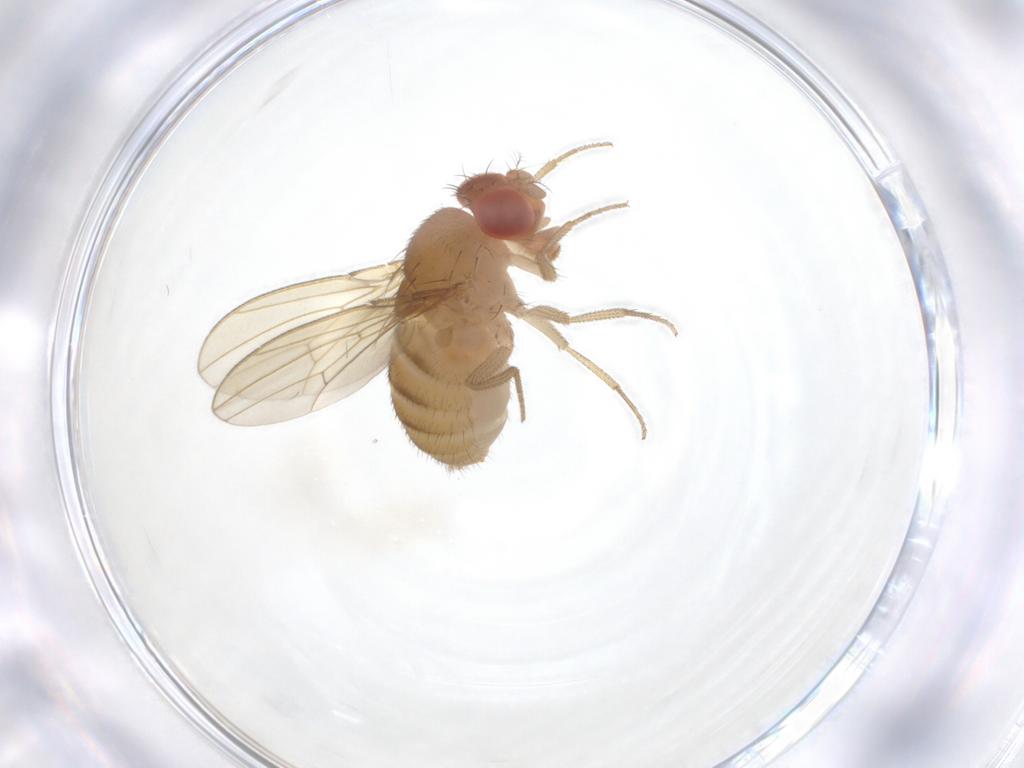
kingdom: Animalia
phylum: Arthropoda
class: Insecta
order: Diptera
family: Drosophilidae
